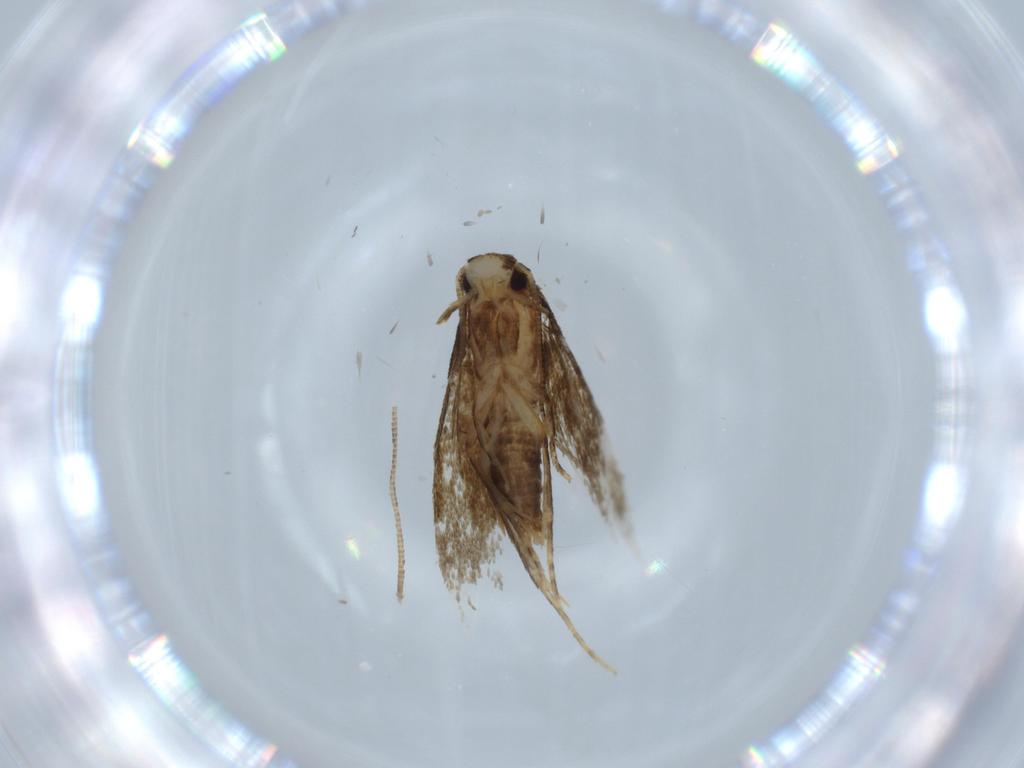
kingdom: Animalia
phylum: Arthropoda
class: Insecta
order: Lepidoptera
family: Tineidae
